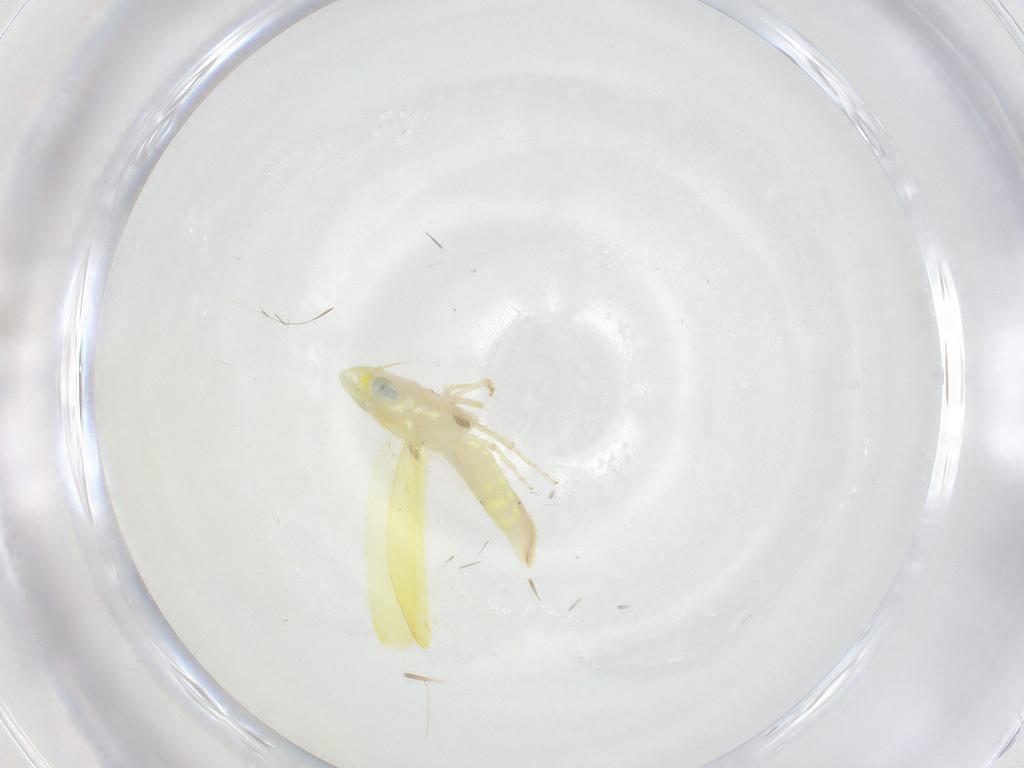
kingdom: Animalia
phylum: Arthropoda
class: Insecta
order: Hemiptera
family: Cicadellidae
